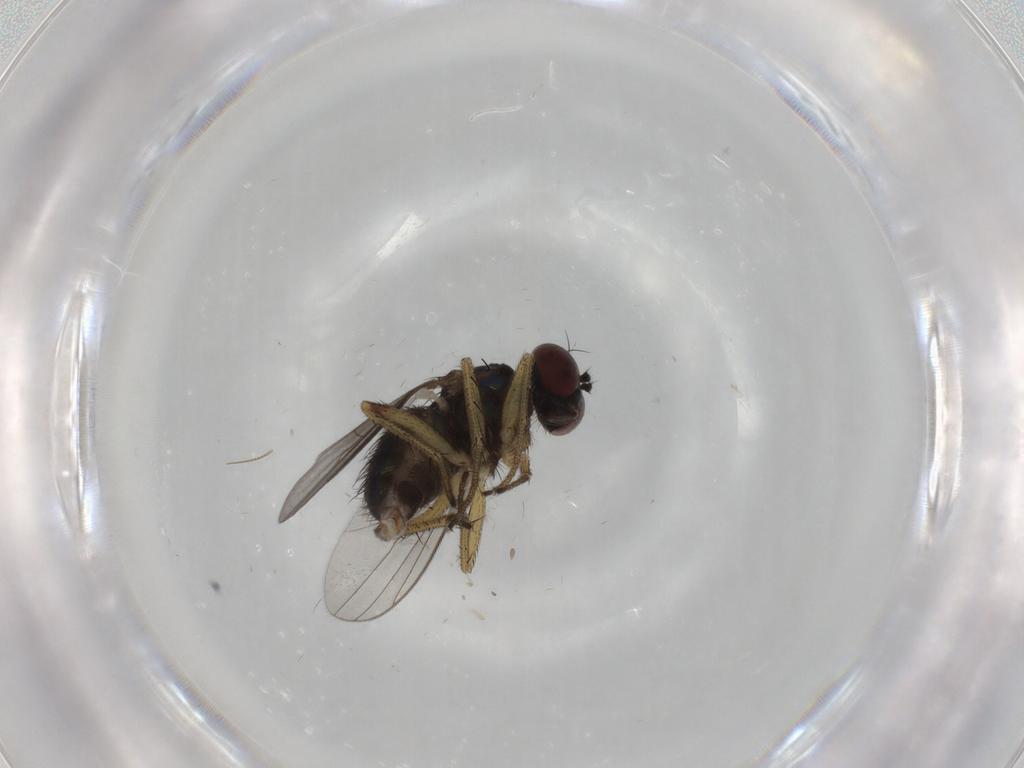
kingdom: Animalia
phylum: Arthropoda
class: Insecta
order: Diptera
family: Dolichopodidae
